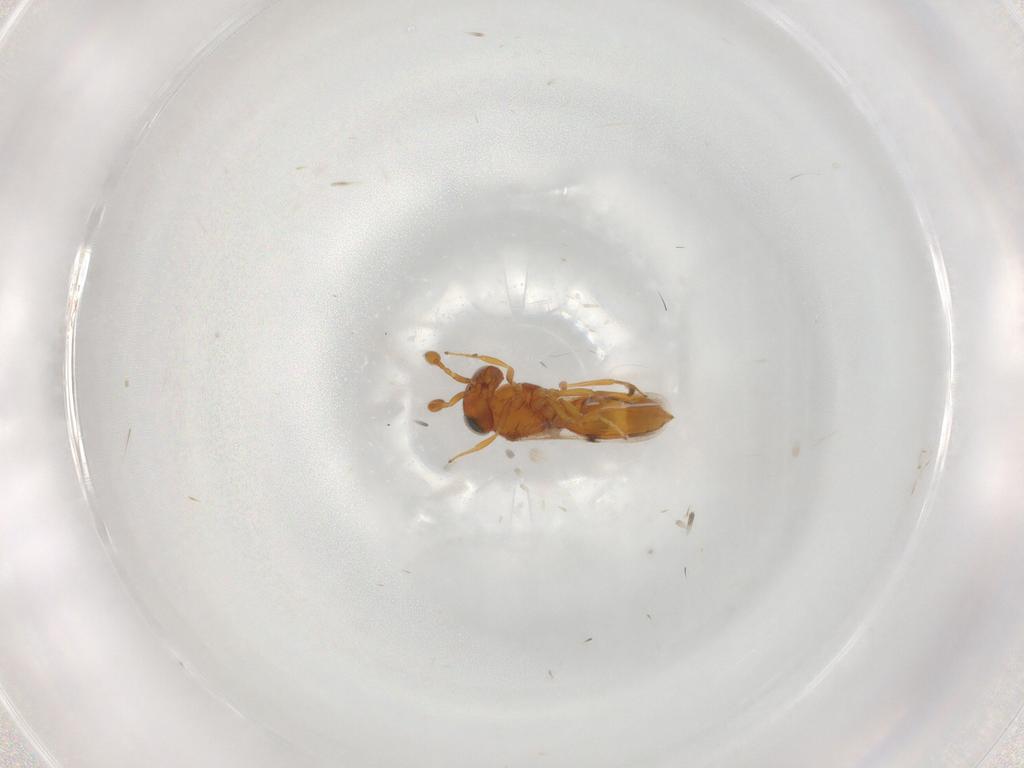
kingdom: Animalia
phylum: Arthropoda
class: Insecta
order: Hymenoptera
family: Scelionidae
